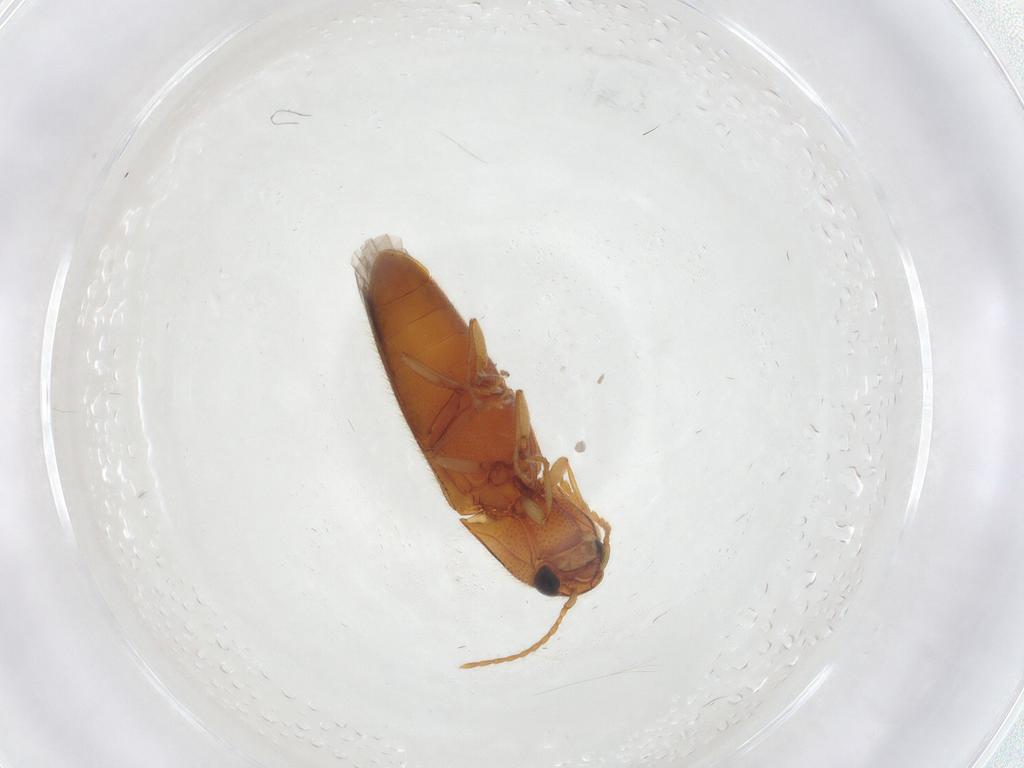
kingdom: Animalia
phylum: Arthropoda
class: Insecta
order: Coleoptera
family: Elateridae
